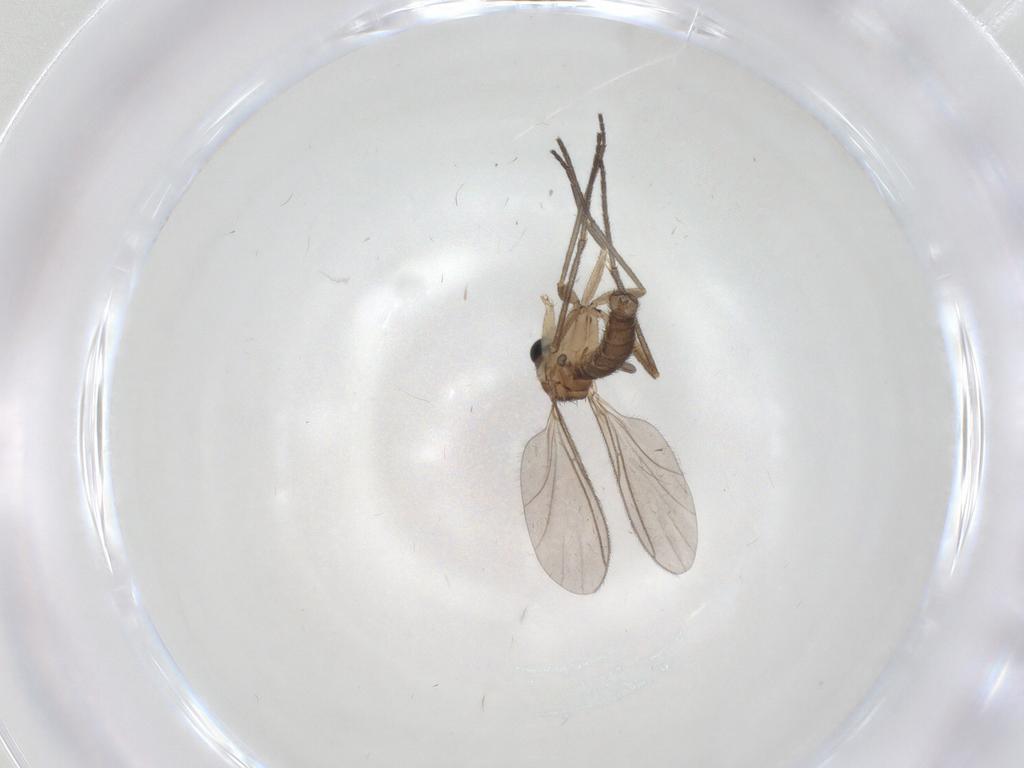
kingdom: Animalia
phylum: Arthropoda
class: Insecta
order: Diptera
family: Sciaridae
